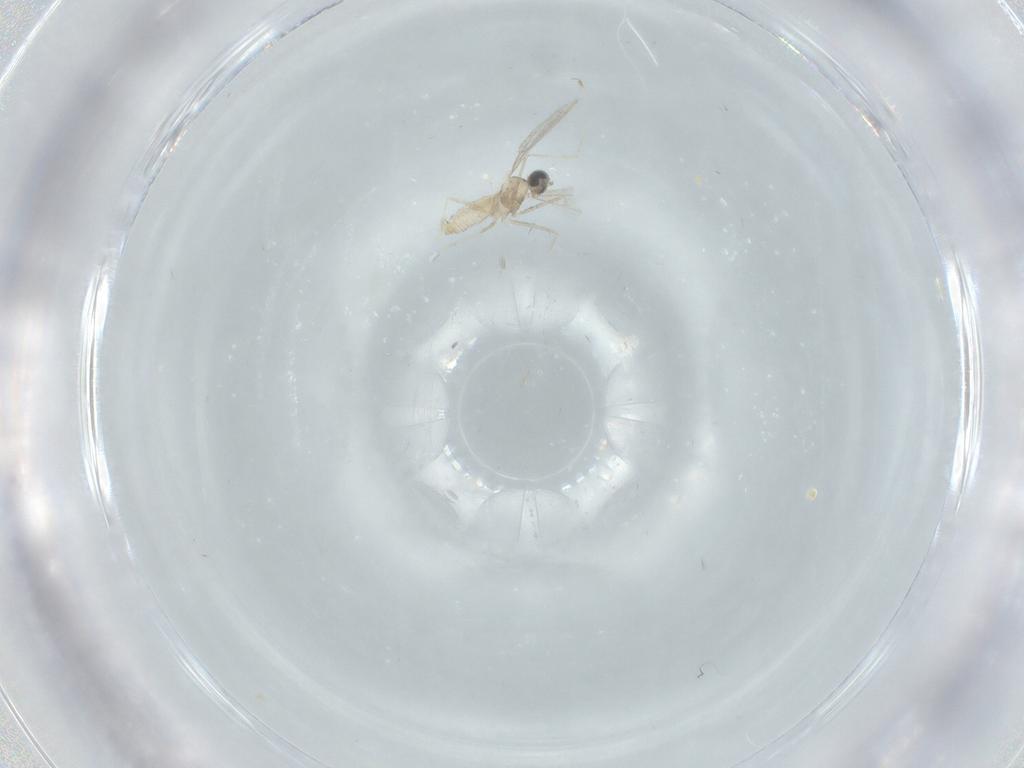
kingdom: Animalia
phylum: Arthropoda
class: Insecta
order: Diptera
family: Cecidomyiidae
